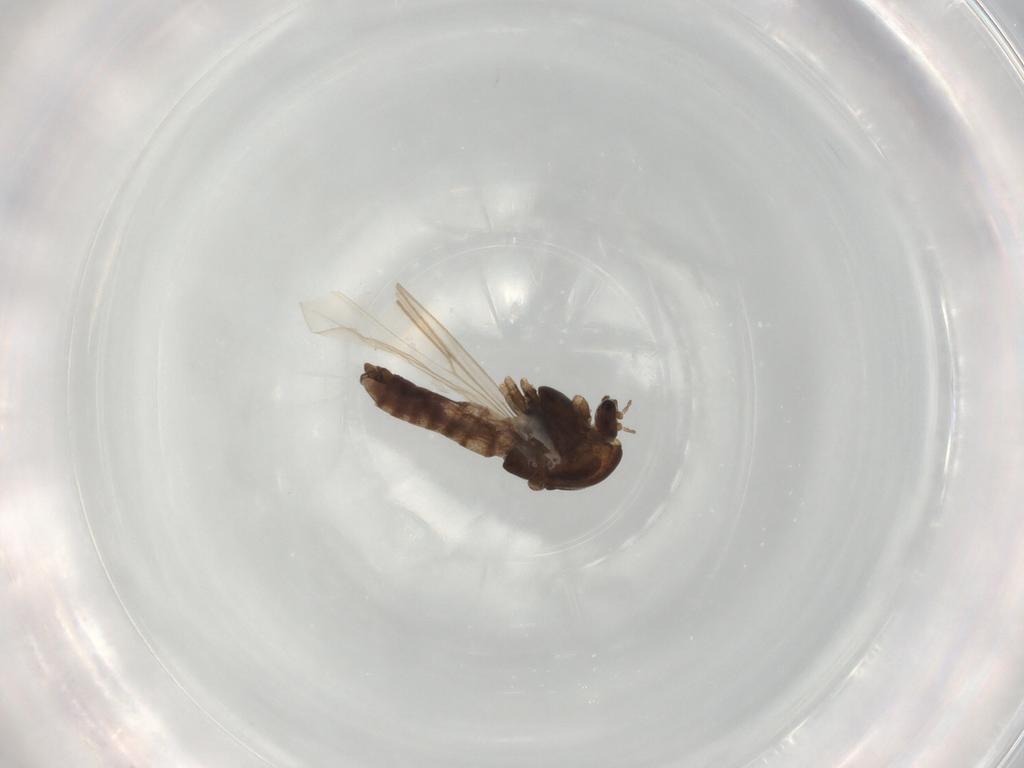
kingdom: Animalia
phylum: Arthropoda
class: Insecta
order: Diptera
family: Chironomidae
